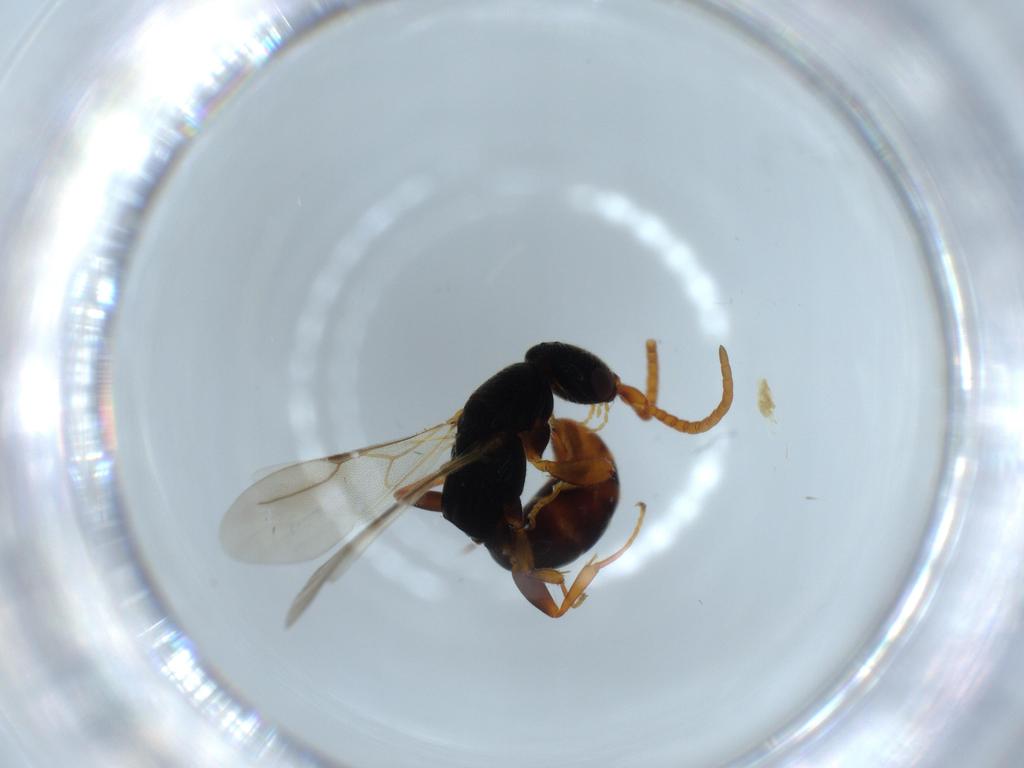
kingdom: Animalia
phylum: Arthropoda
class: Insecta
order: Hymenoptera
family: Bethylidae
